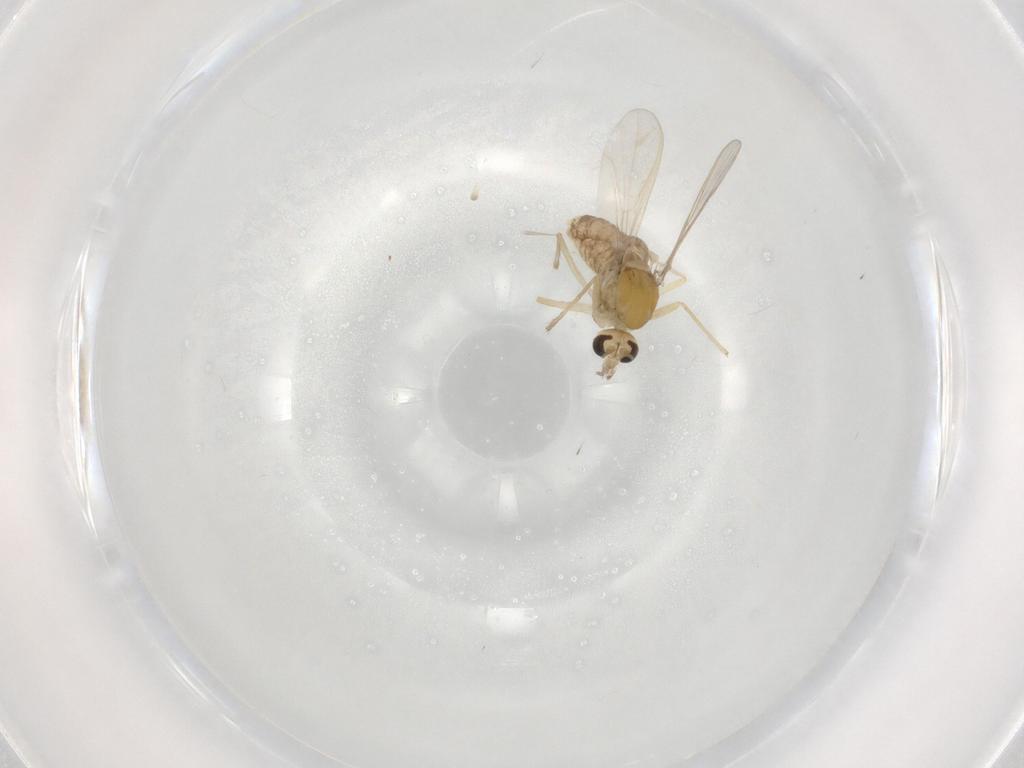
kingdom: Animalia
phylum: Arthropoda
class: Insecta
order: Diptera
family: Chironomidae
